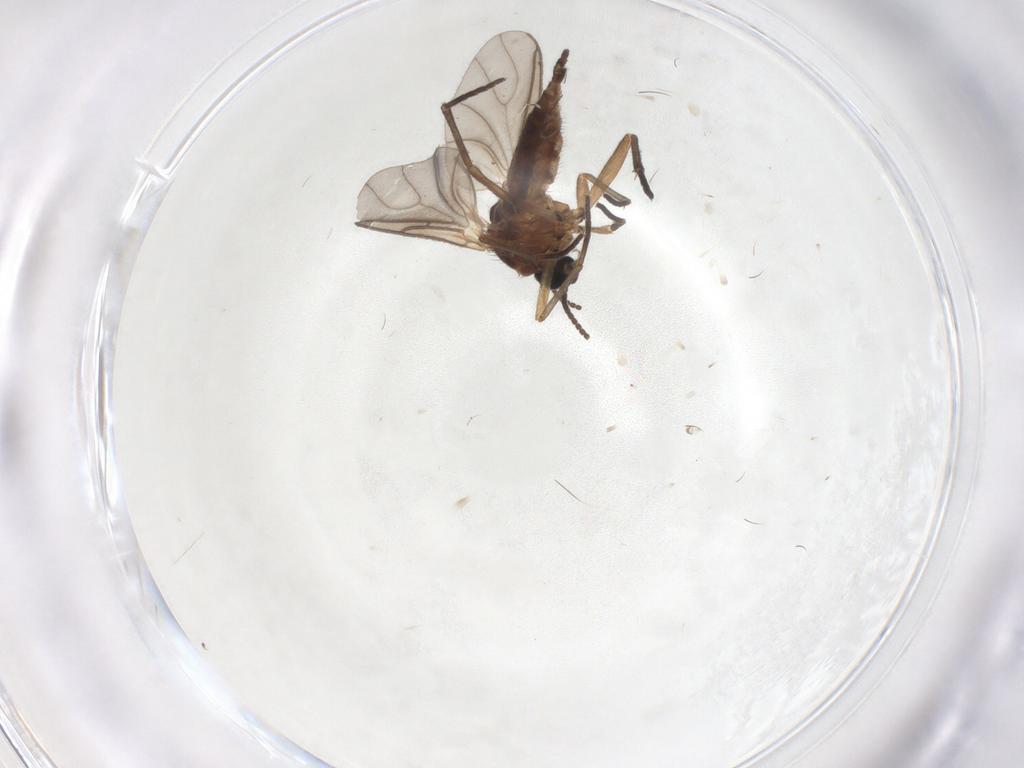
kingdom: Animalia
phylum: Arthropoda
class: Insecta
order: Diptera
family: Sciaridae
